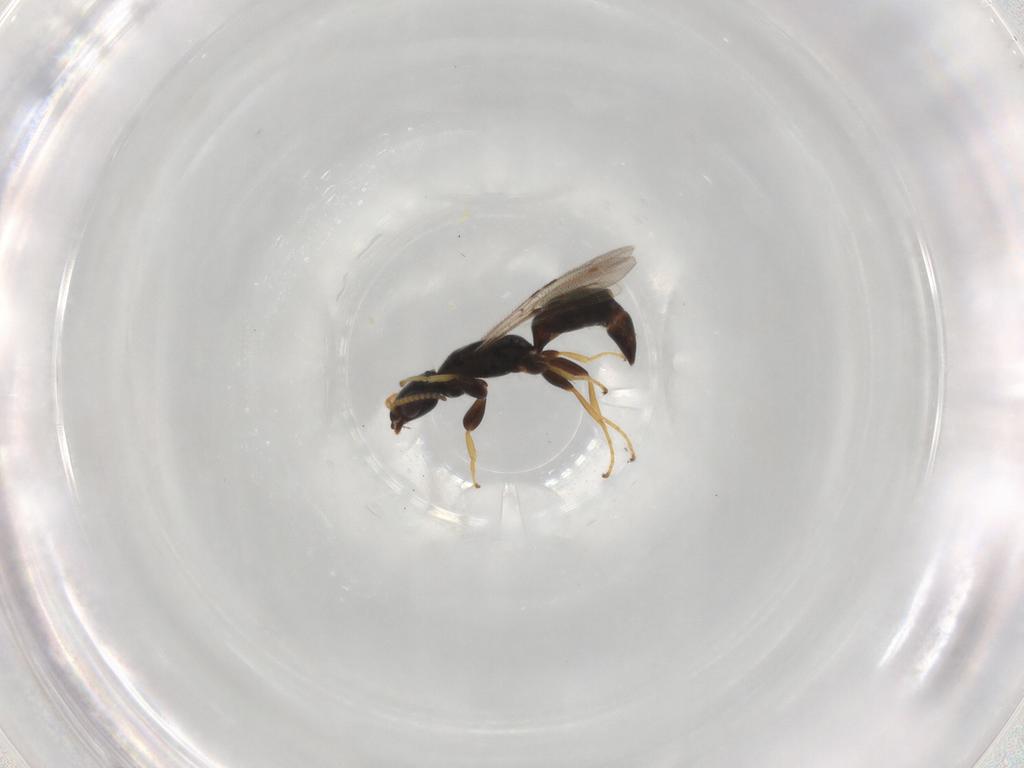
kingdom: Animalia
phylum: Arthropoda
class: Insecta
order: Hymenoptera
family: Bethylidae
